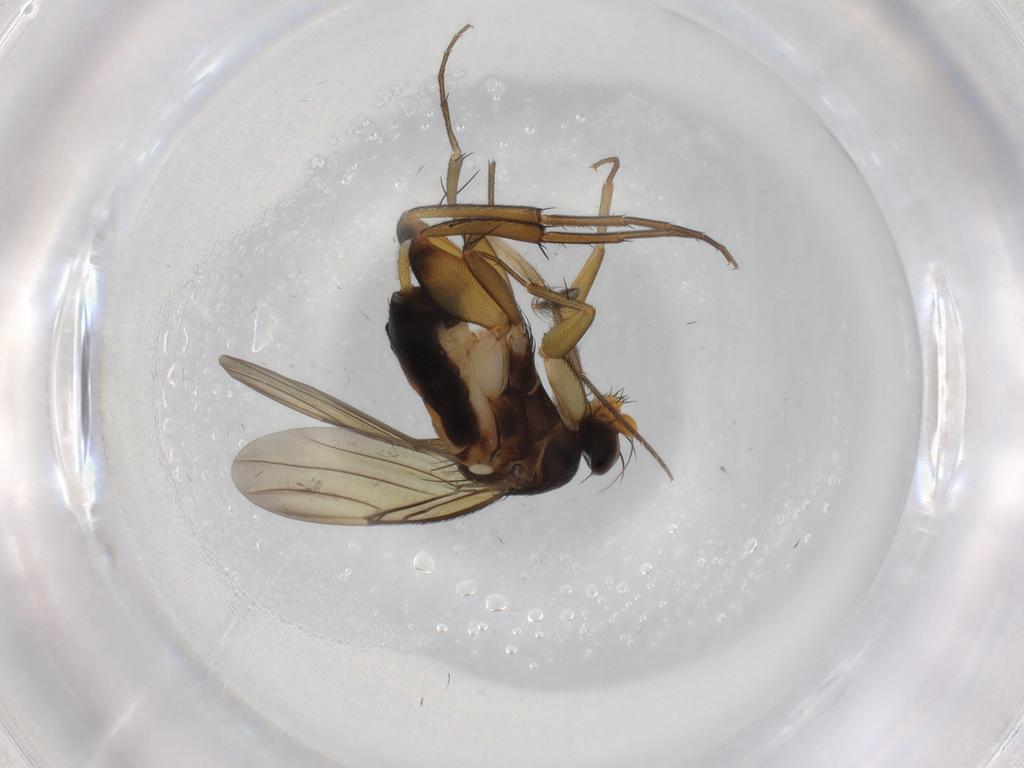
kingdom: Animalia
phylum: Arthropoda
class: Insecta
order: Diptera
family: Phoridae
